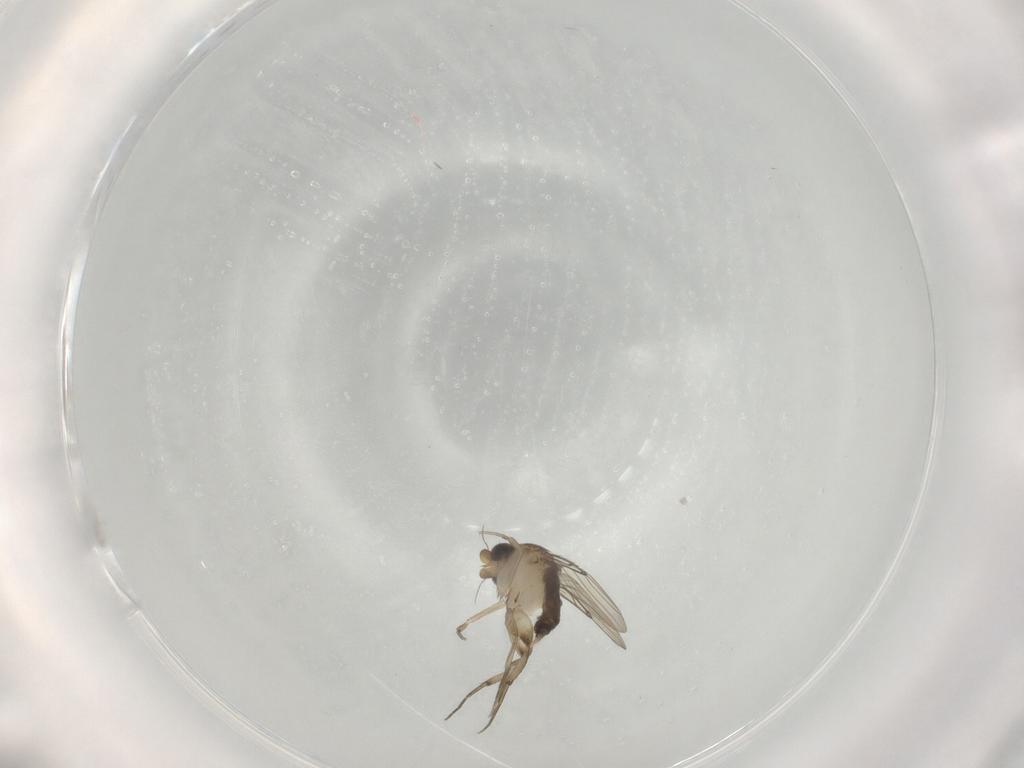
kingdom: Animalia
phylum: Arthropoda
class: Insecta
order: Diptera
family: Phoridae
